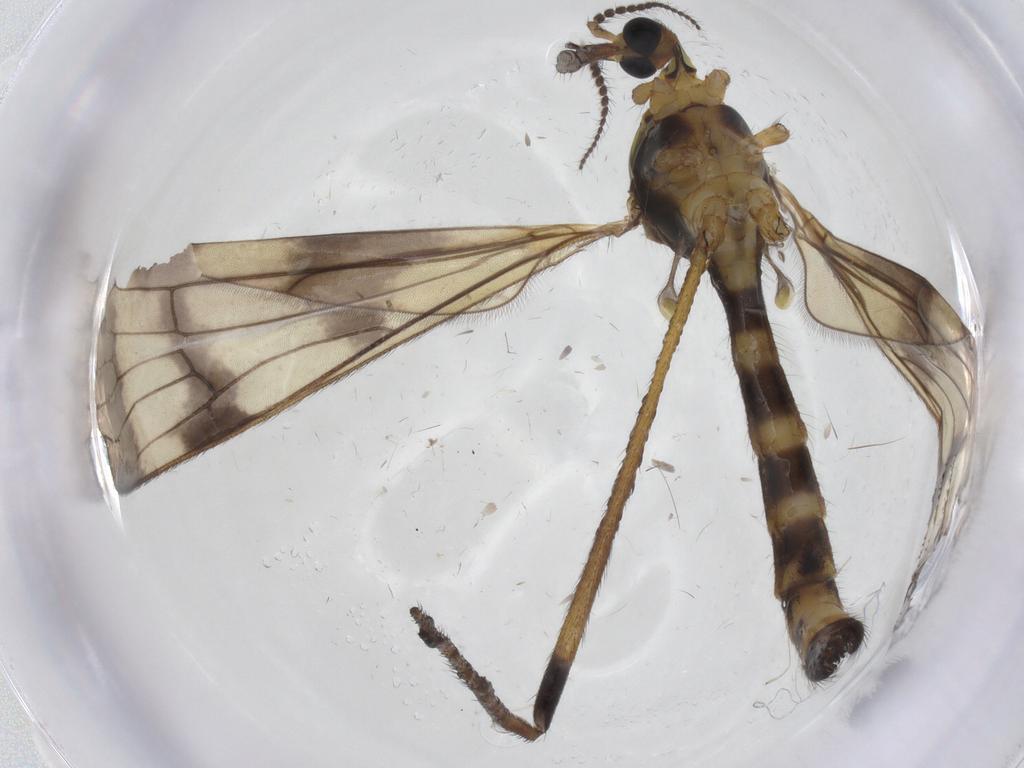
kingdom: Animalia
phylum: Arthropoda
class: Insecta
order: Diptera
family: Limoniidae
